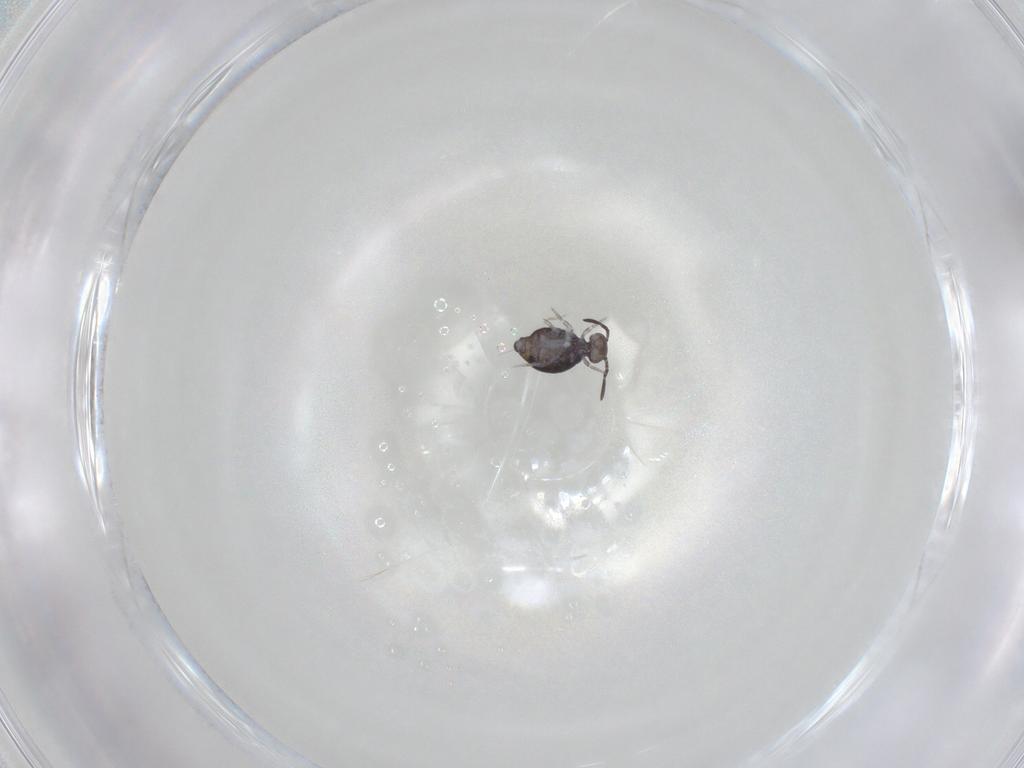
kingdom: Animalia
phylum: Arthropoda
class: Collembola
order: Symphypleona
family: Katiannidae
